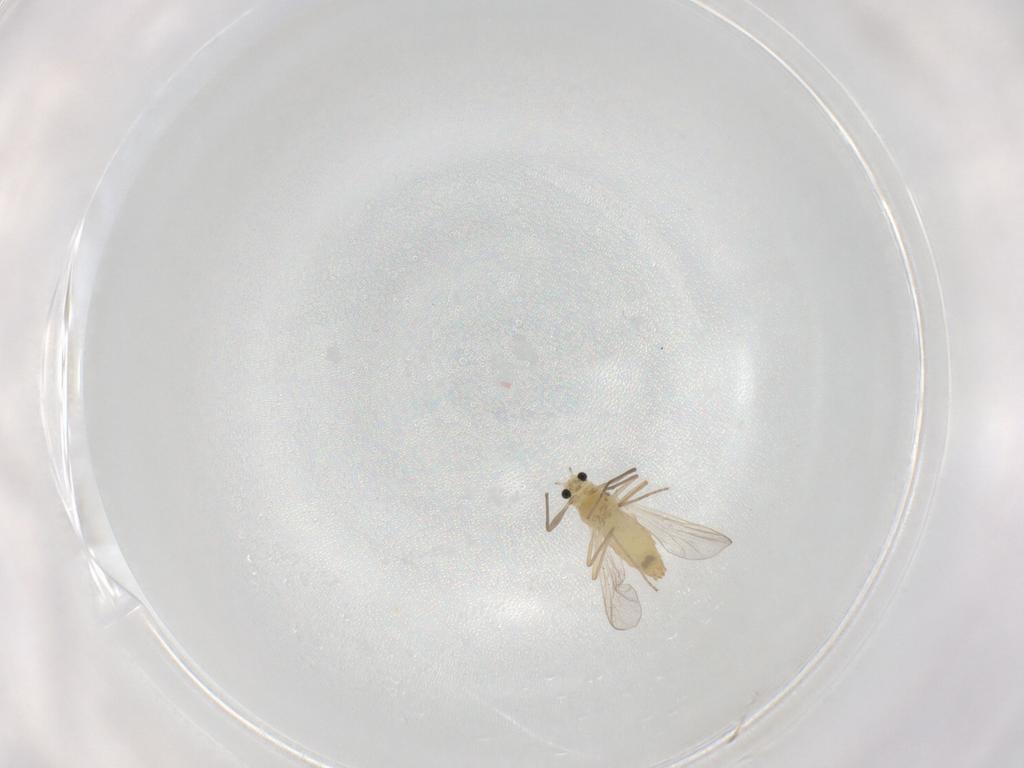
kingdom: Animalia
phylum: Arthropoda
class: Insecta
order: Diptera
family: Chironomidae
